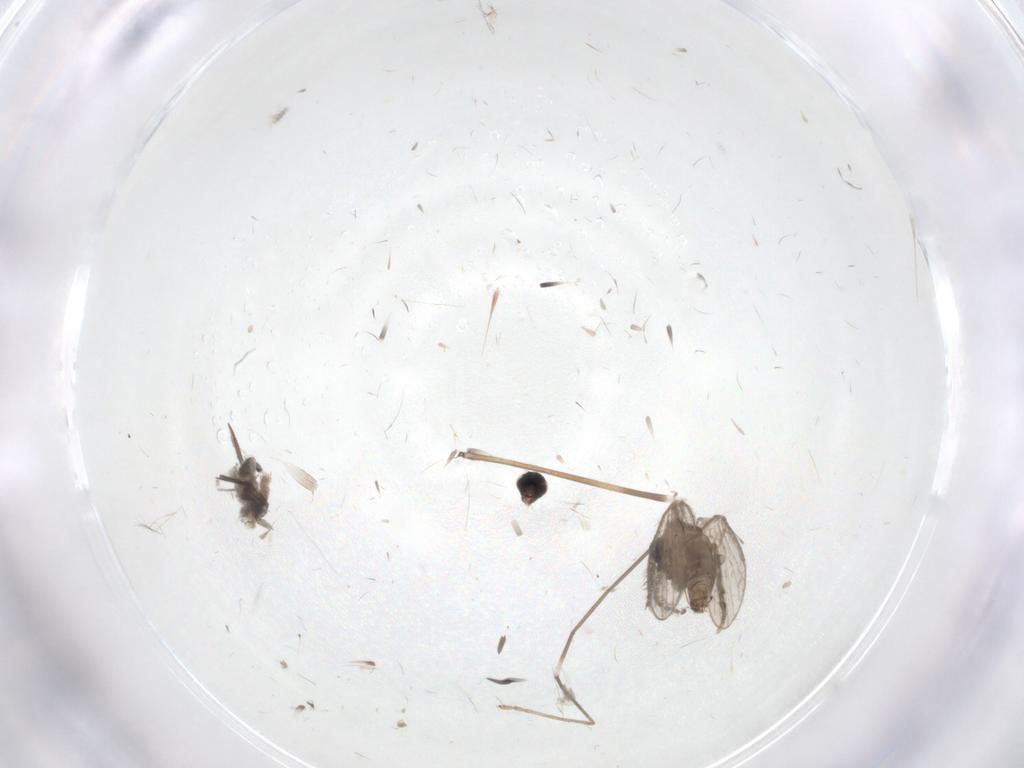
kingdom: Animalia
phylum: Arthropoda
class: Insecta
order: Diptera
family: Limoniidae
